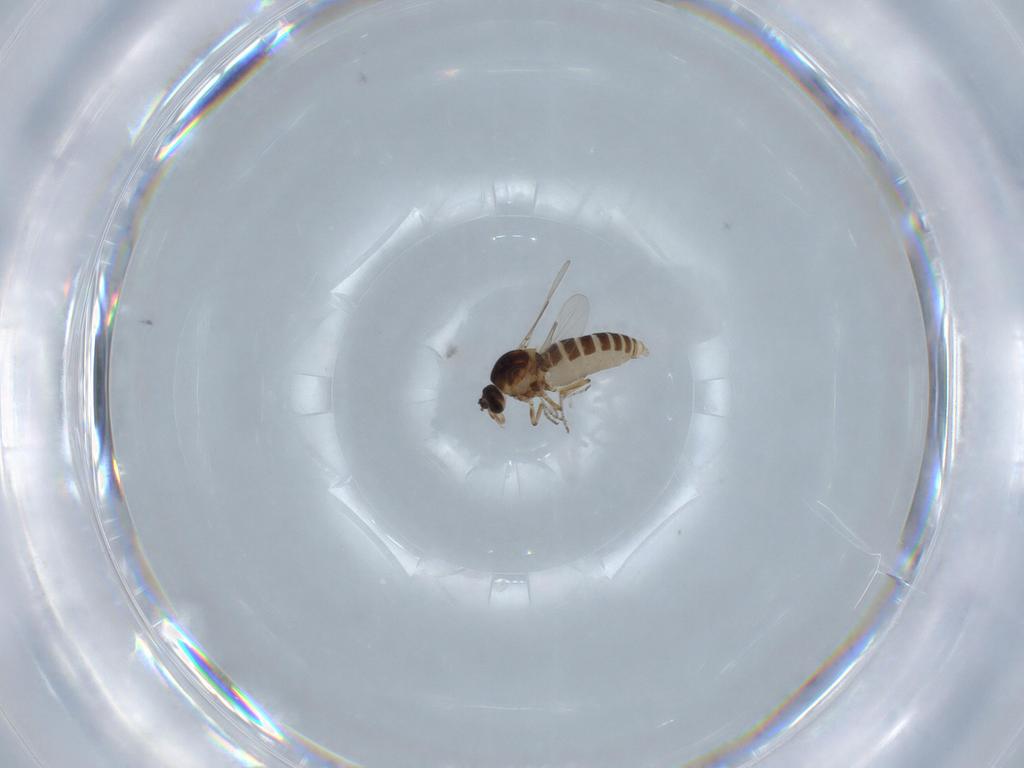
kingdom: Animalia
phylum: Arthropoda
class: Insecta
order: Diptera
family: Ceratopogonidae
